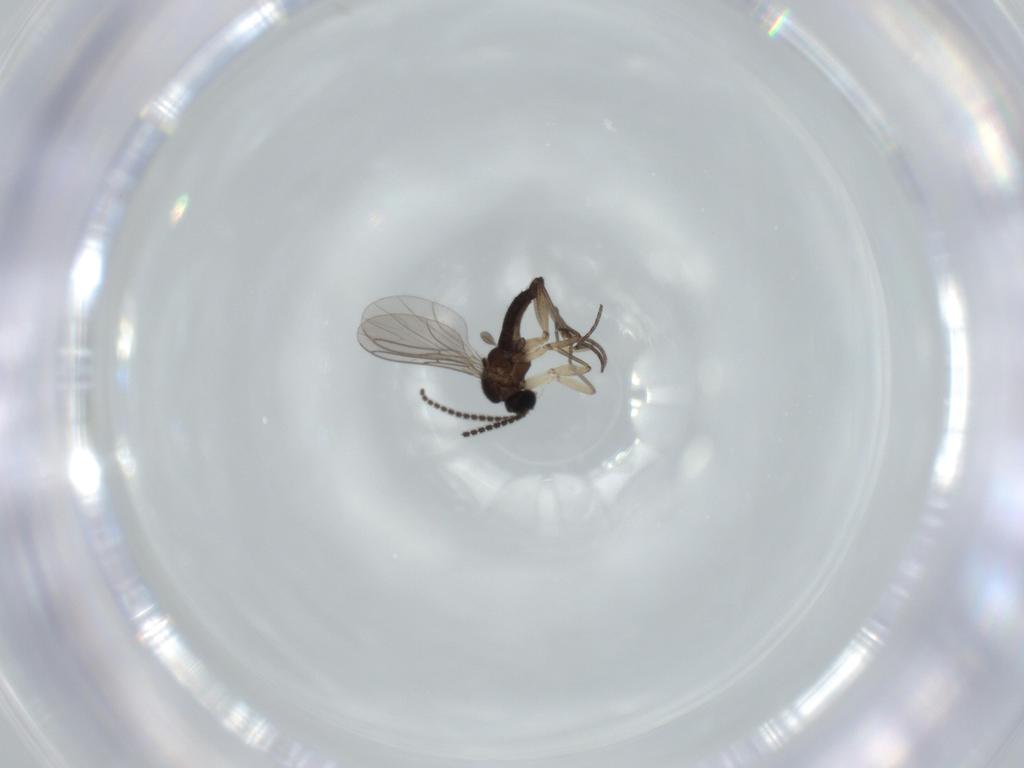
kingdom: Animalia
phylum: Arthropoda
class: Insecta
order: Diptera
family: Sciaridae
